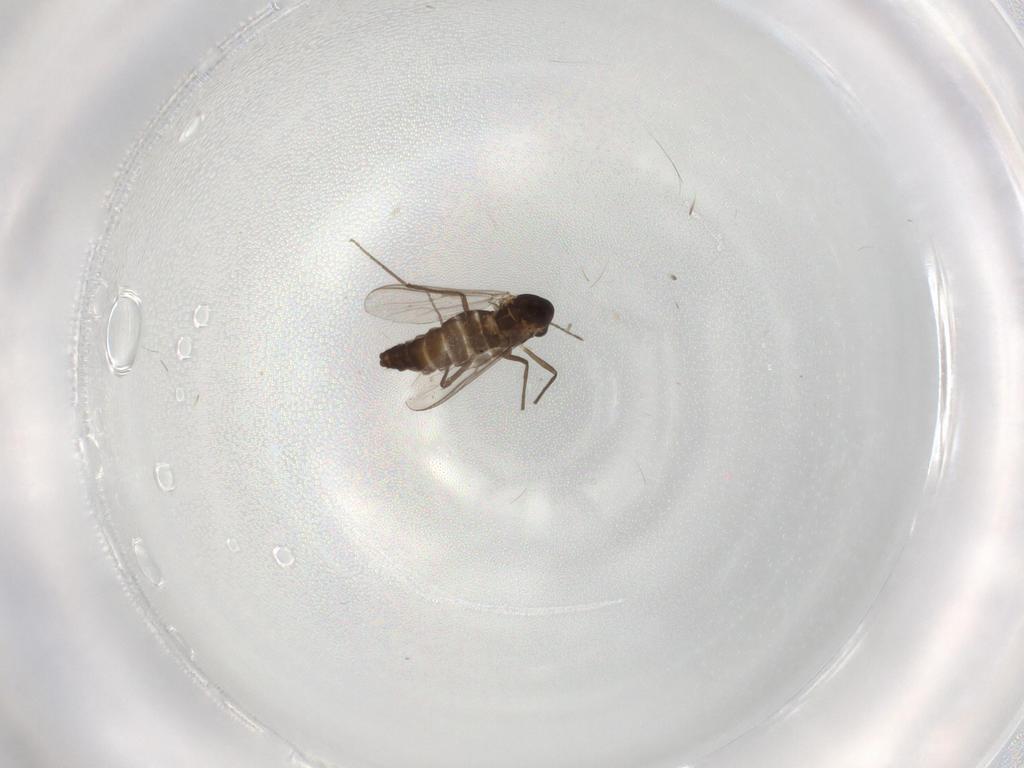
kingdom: Animalia
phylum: Arthropoda
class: Insecta
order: Diptera
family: Chironomidae
